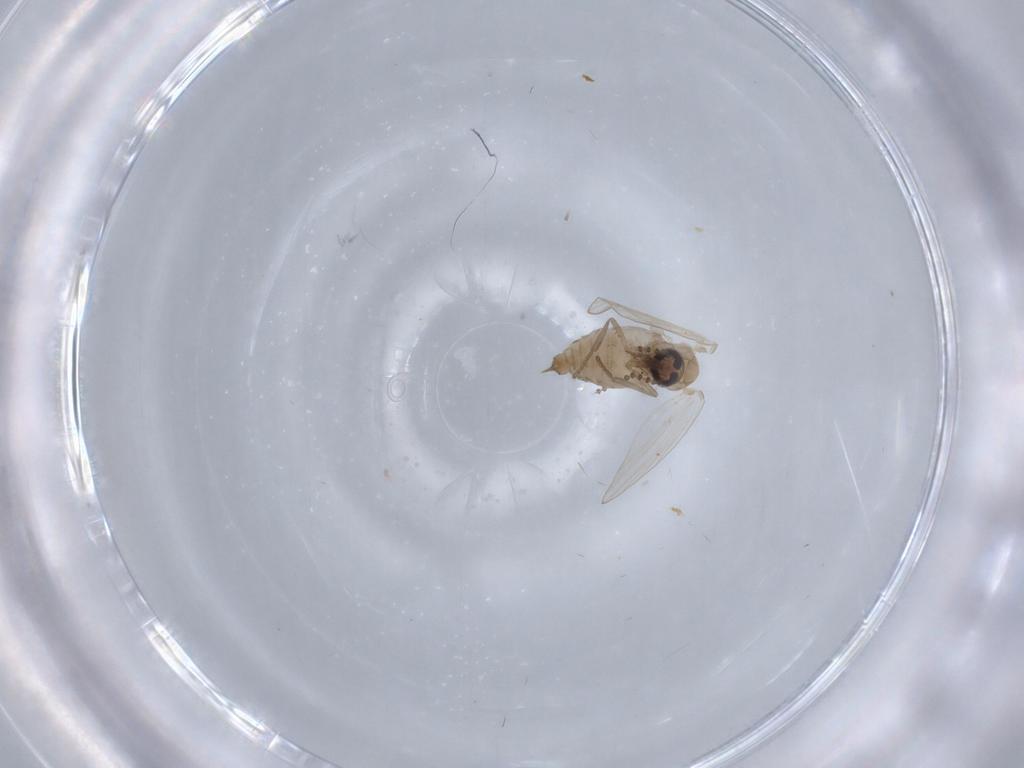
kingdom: Animalia
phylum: Arthropoda
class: Insecta
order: Diptera
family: Psychodidae
